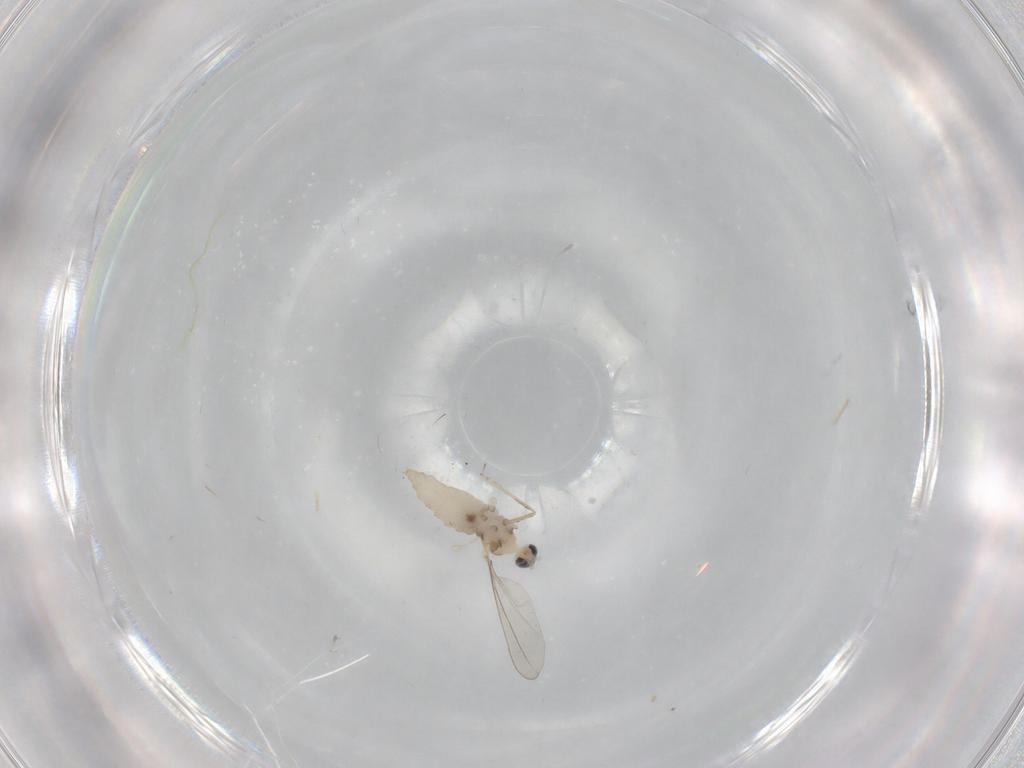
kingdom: Animalia
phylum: Arthropoda
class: Insecta
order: Diptera
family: Cecidomyiidae
